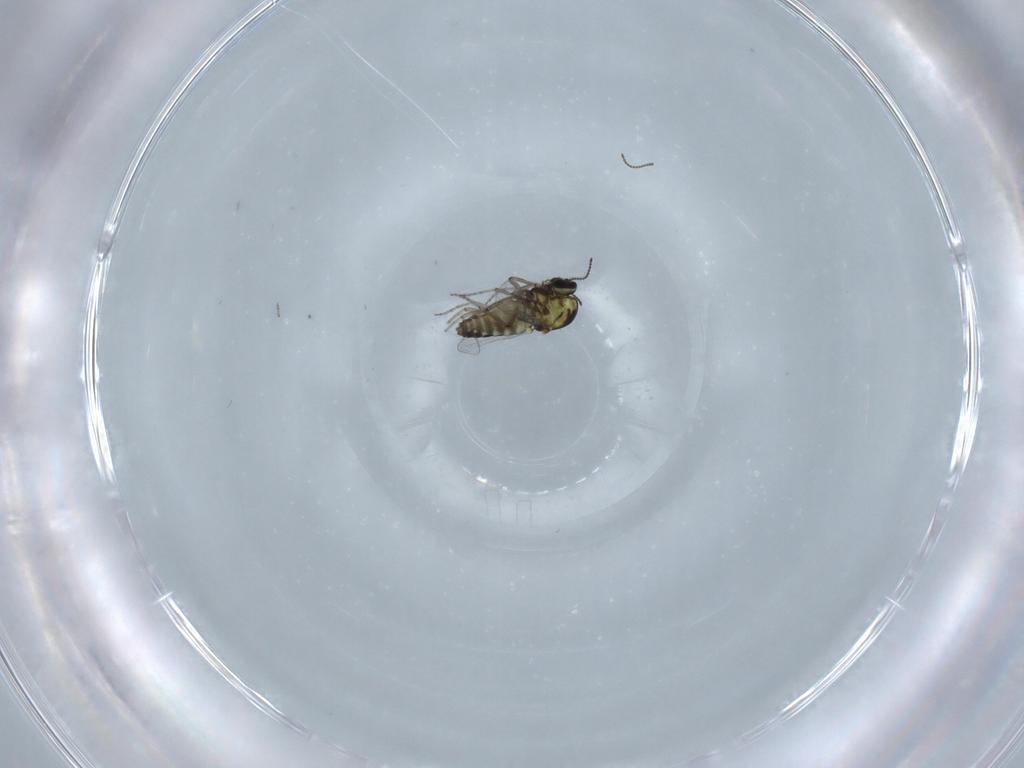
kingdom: Animalia
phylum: Arthropoda
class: Insecta
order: Diptera
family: Ceratopogonidae
